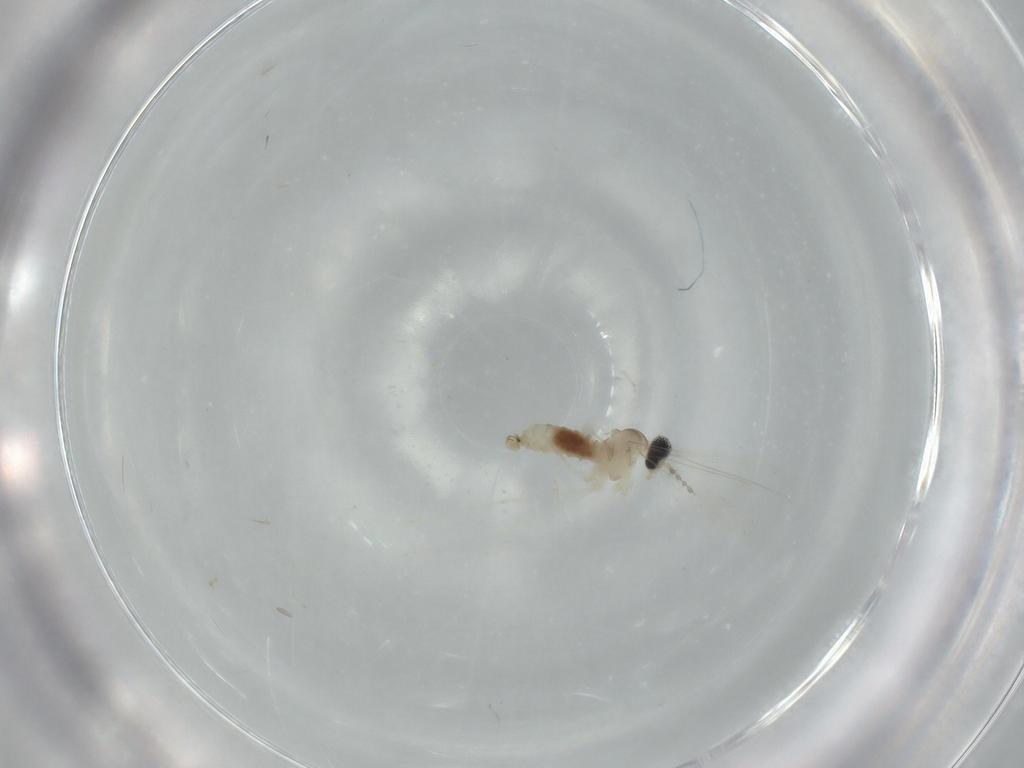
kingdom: Animalia
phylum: Arthropoda
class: Insecta
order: Diptera
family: Cecidomyiidae
